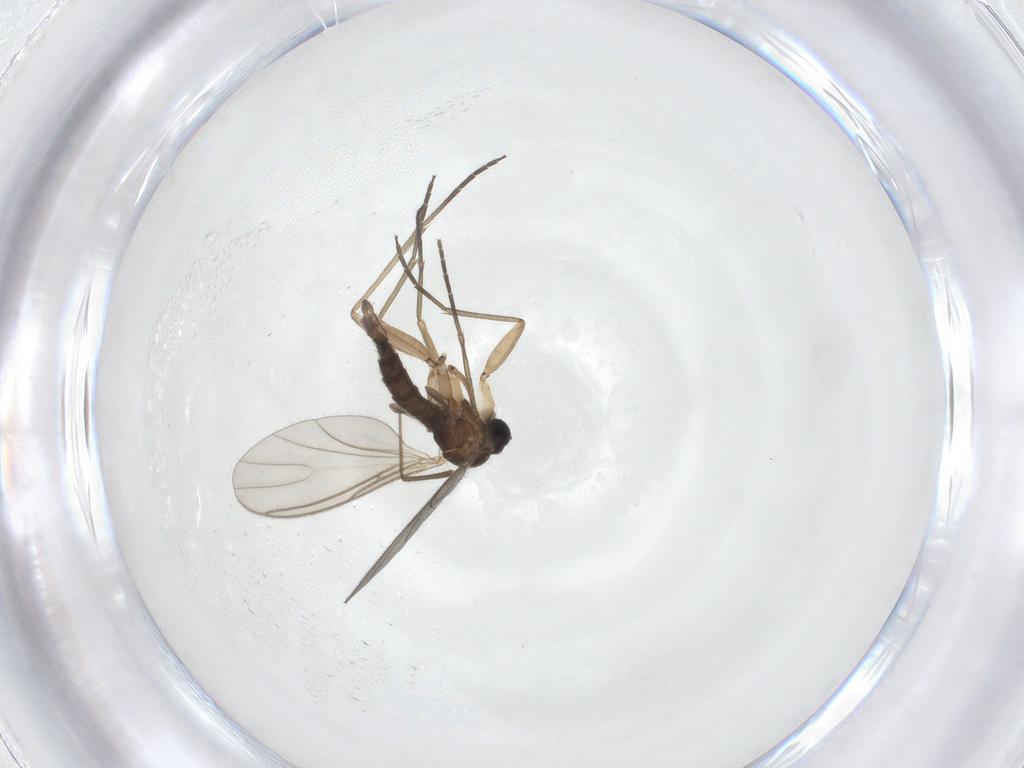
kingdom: Animalia
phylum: Arthropoda
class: Insecta
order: Diptera
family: Sciaridae
